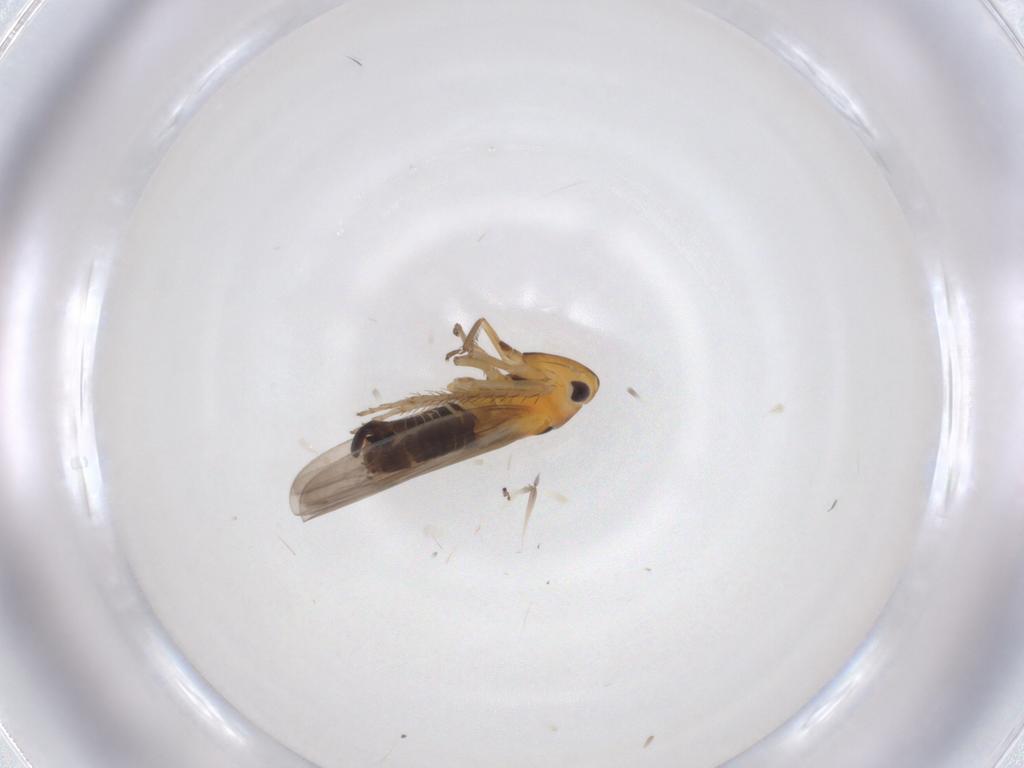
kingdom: Animalia
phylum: Arthropoda
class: Insecta
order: Hemiptera
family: Cicadellidae
